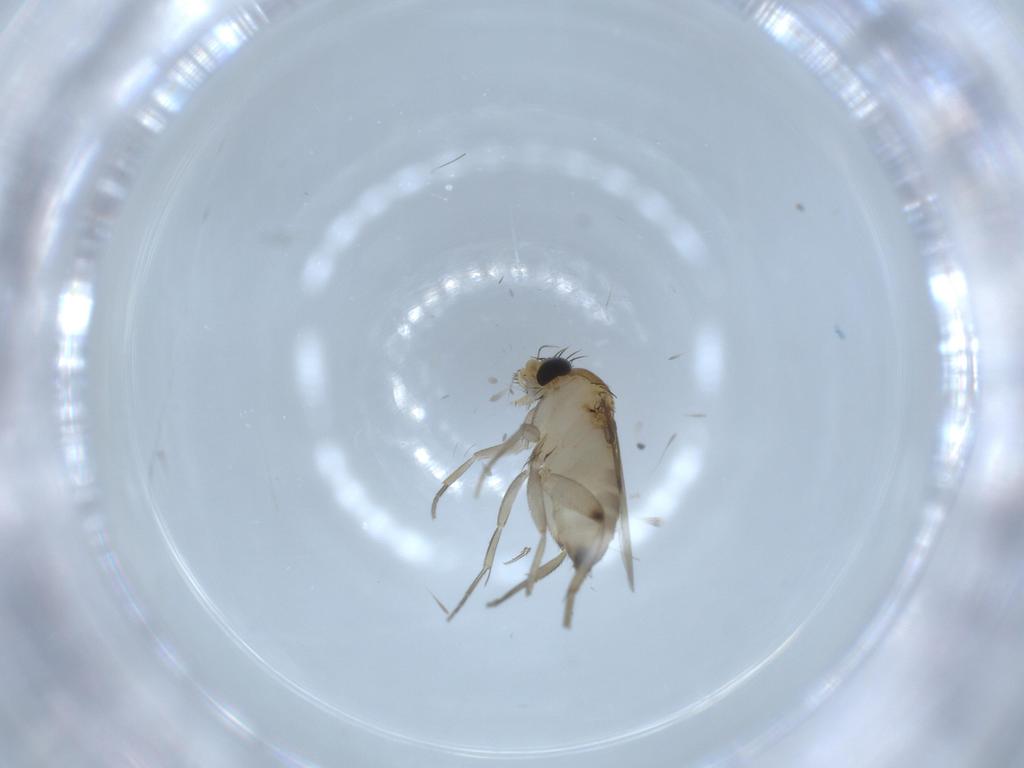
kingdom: Animalia
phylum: Arthropoda
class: Insecta
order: Diptera
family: Phoridae
